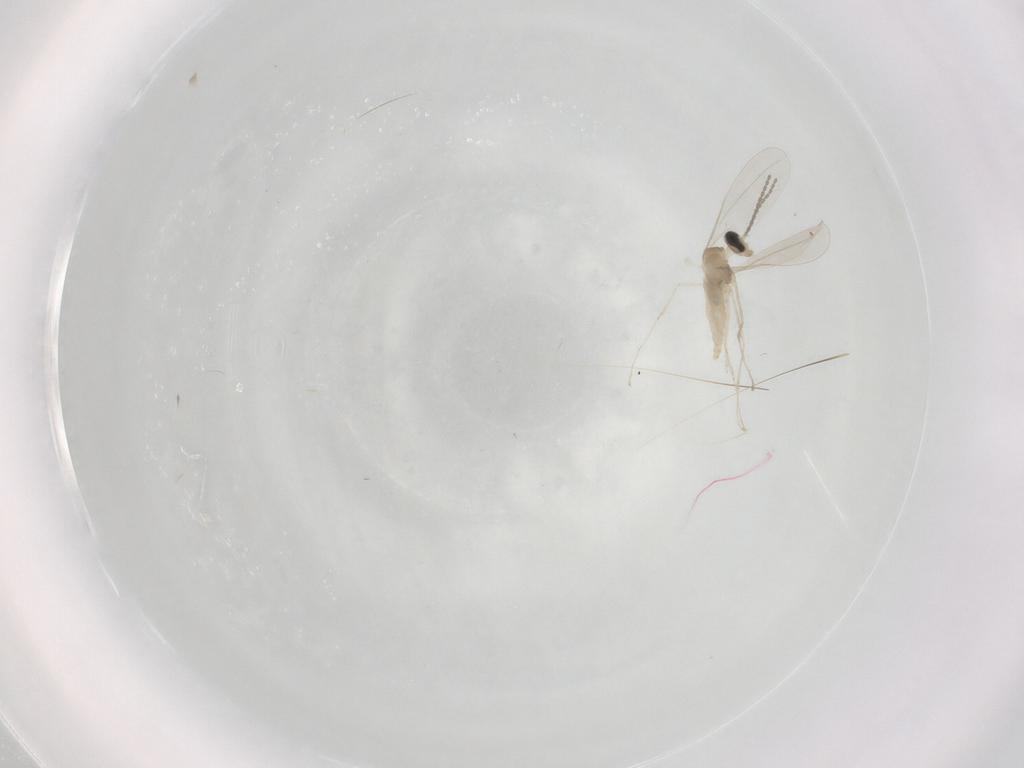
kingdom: Animalia
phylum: Arthropoda
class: Insecta
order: Diptera
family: Cecidomyiidae
